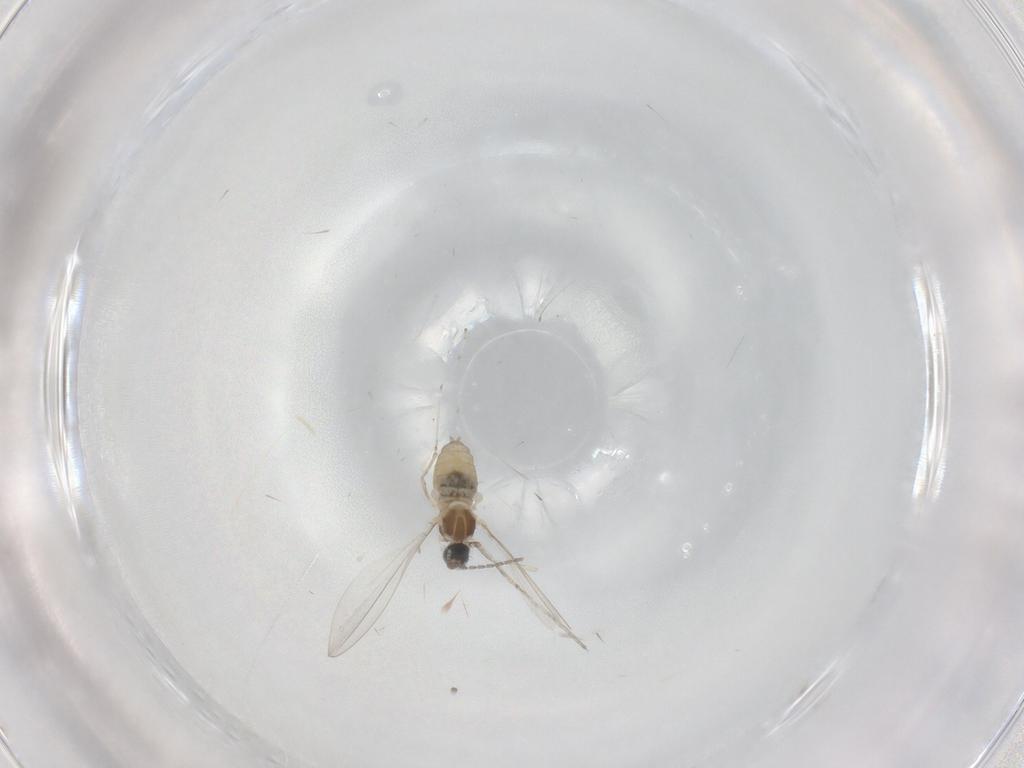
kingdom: Animalia
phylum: Arthropoda
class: Insecta
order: Diptera
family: Cecidomyiidae
